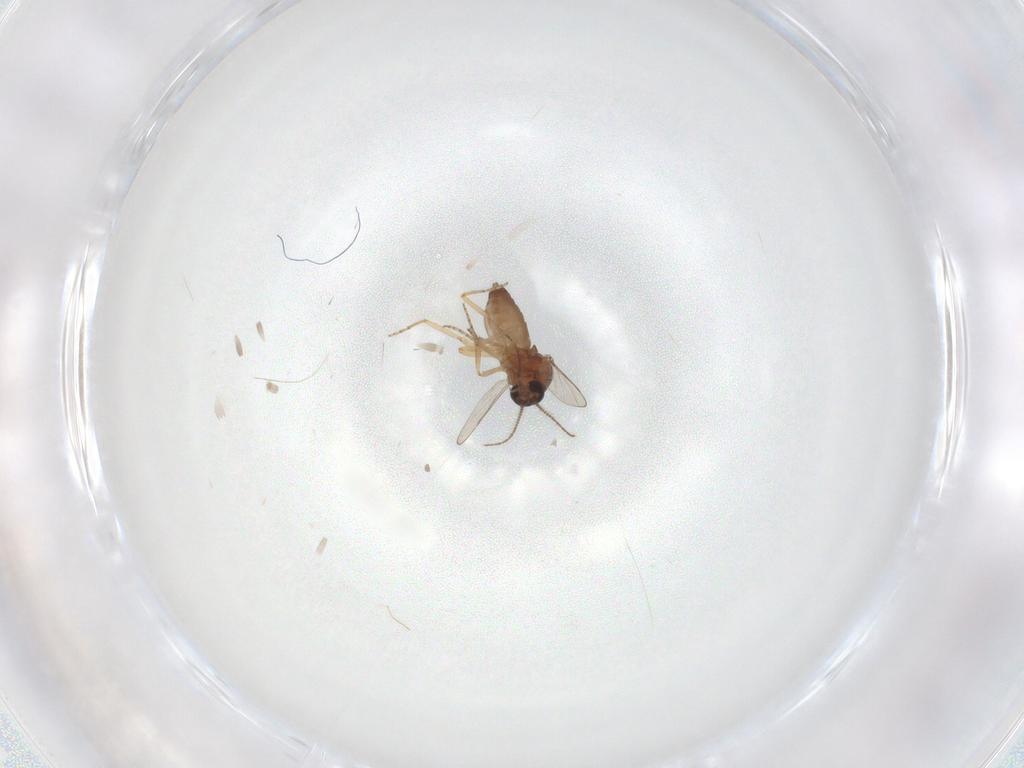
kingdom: Animalia
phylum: Arthropoda
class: Insecta
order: Diptera
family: Ceratopogonidae
